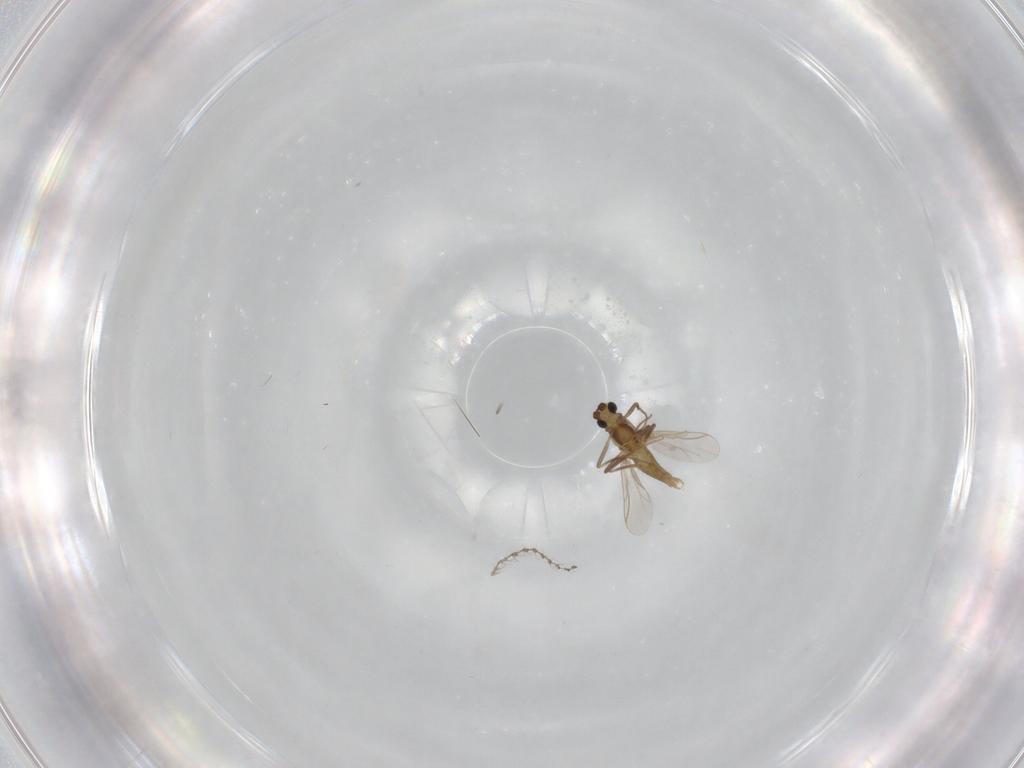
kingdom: Animalia
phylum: Arthropoda
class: Insecta
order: Diptera
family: Chironomidae
